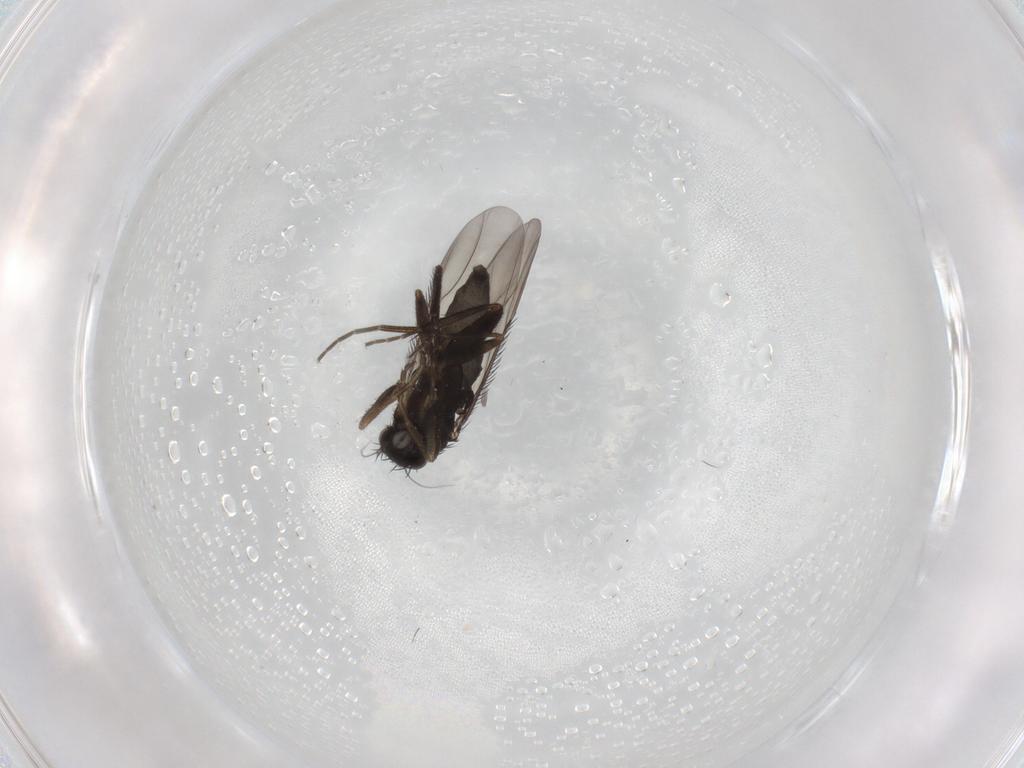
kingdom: Animalia
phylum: Arthropoda
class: Insecta
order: Diptera
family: Phoridae
